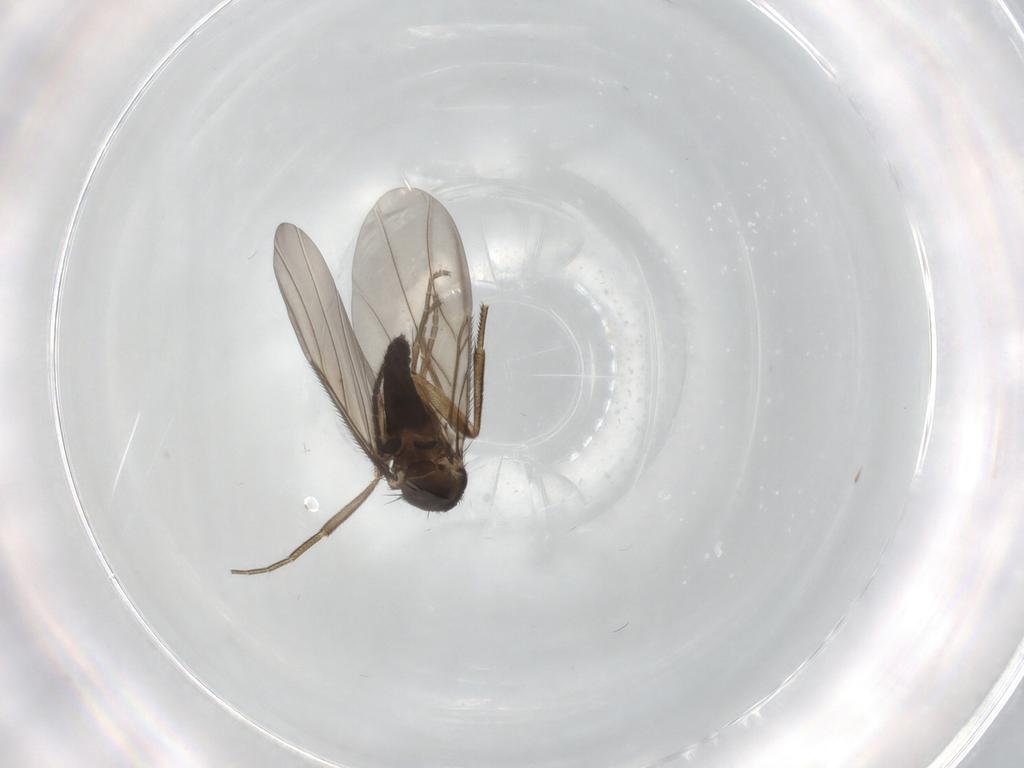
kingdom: Animalia
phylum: Arthropoda
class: Insecta
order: Diptera
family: Phoridae
